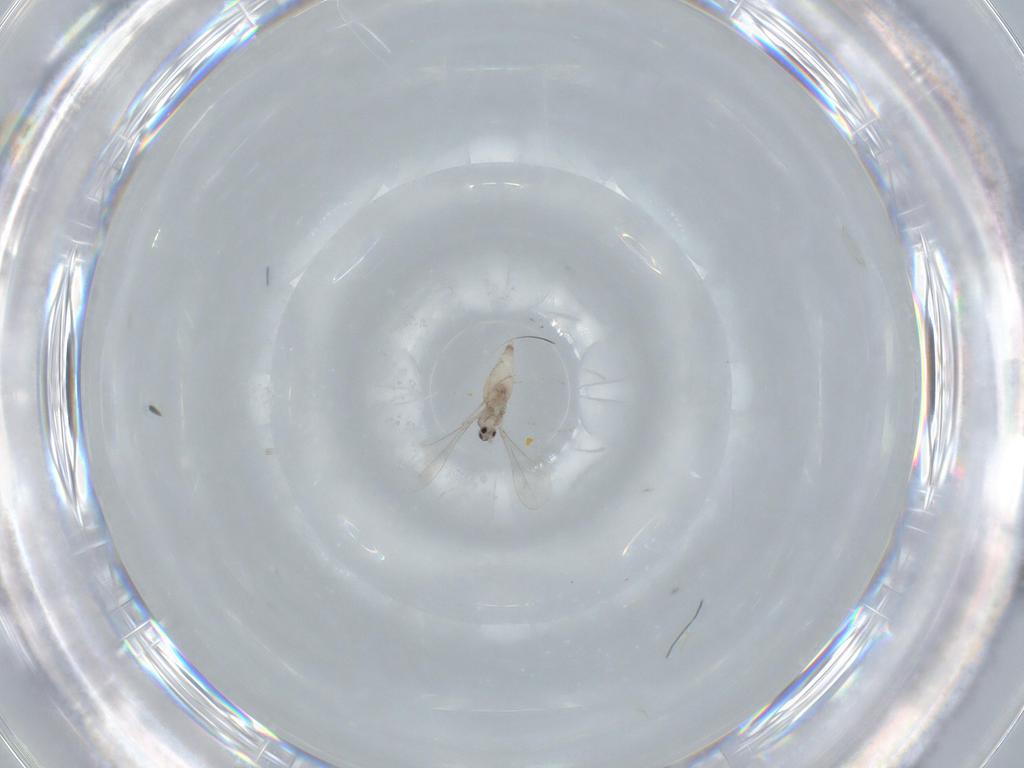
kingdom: Animalia
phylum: Arthropoda
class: Insecta
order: Diptera
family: Cecidomyiidae
